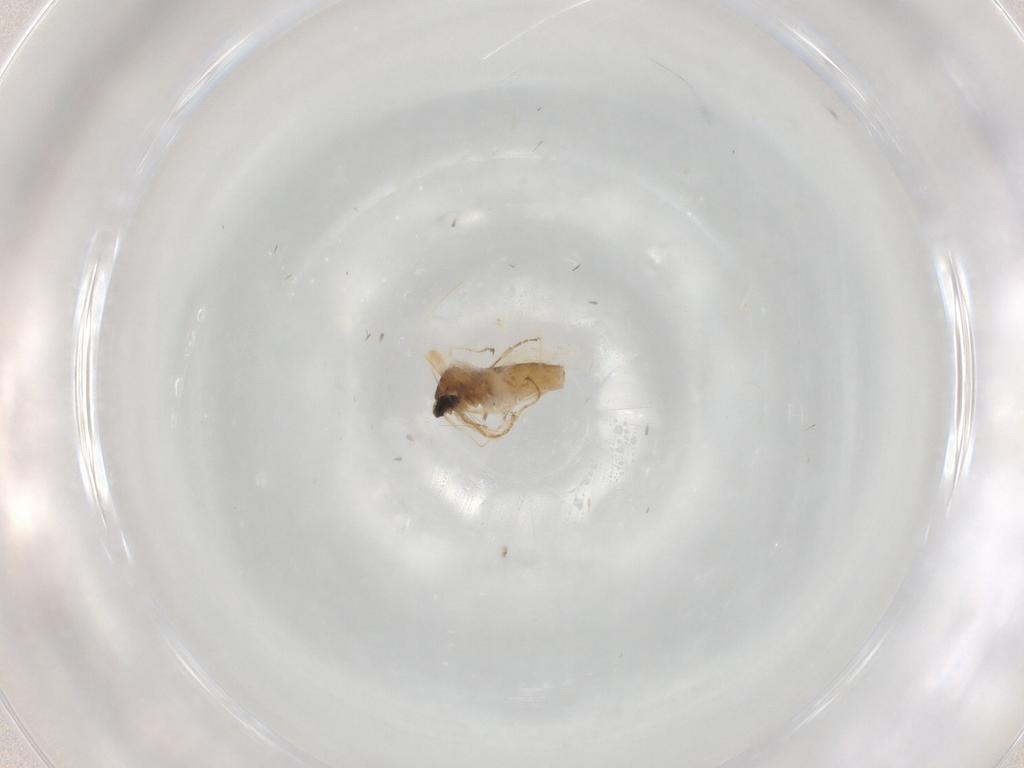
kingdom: Animalia
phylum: Arthropoda
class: Insecta
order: Diptera
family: Cecidomyiidae
